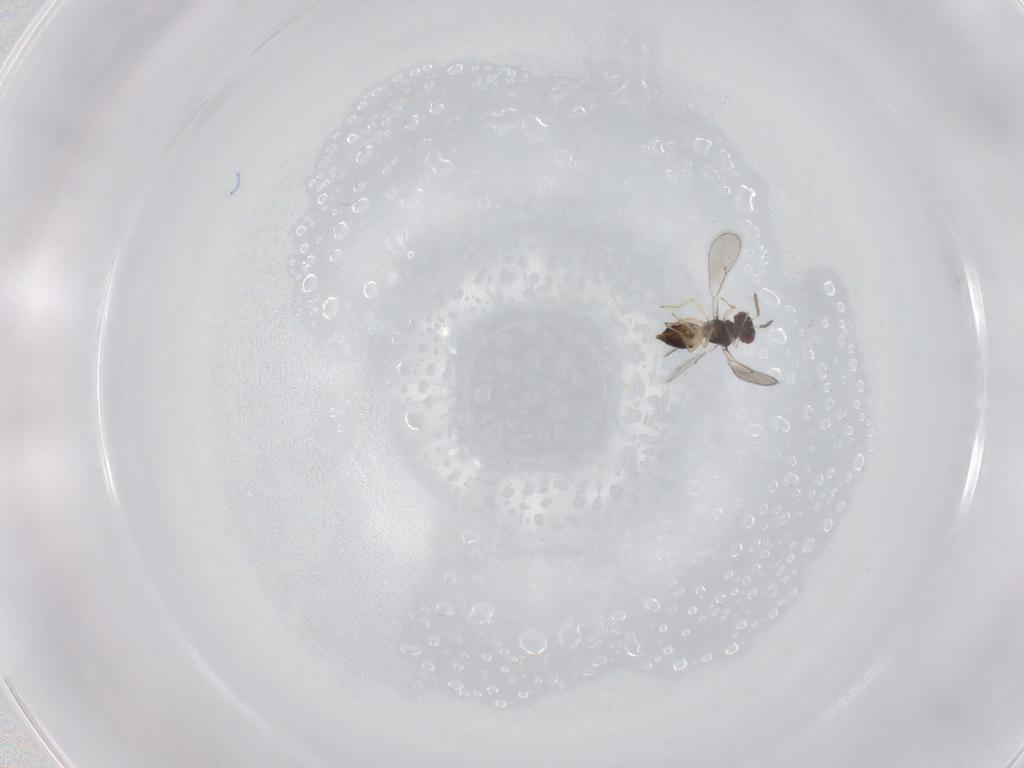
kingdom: Animalia
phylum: Arthropoda
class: Insecta
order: Hymenoptera
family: Eulophidae
